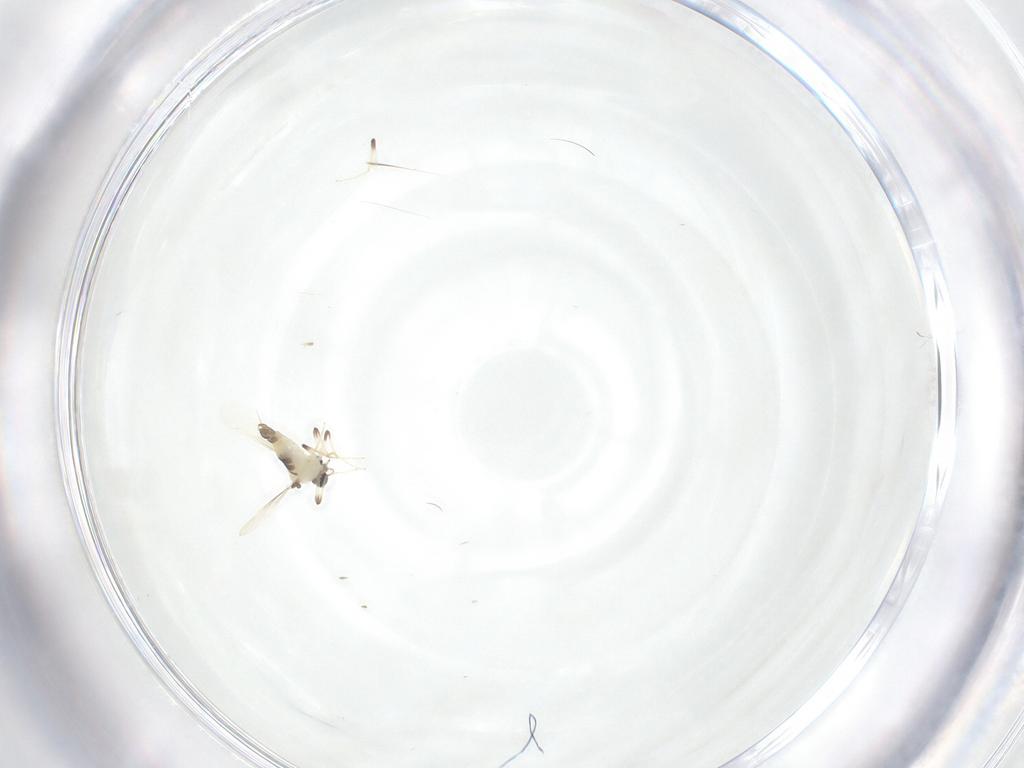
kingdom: Animalia
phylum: Arthropoda
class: Insecta
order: Diptera
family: Chironomidae
